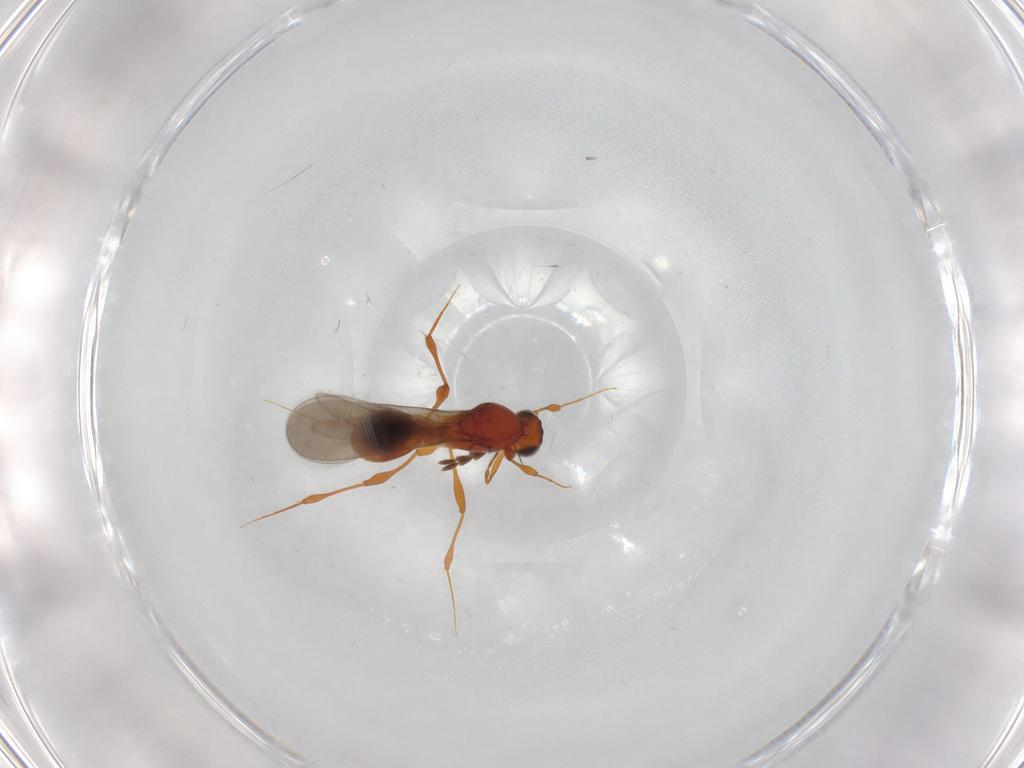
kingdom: Animalia
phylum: Arthropoda
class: Insecta
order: Hymenoptera
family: Platygastridae
